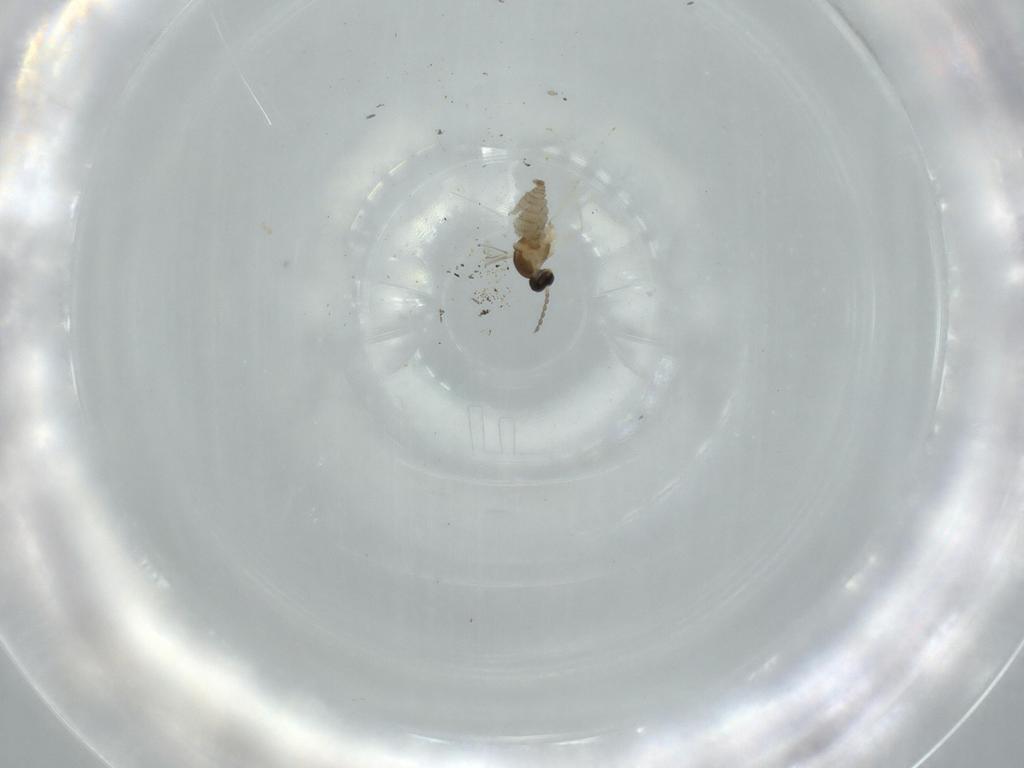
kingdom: Animalia
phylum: Arthropoda
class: Insecta
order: Diptera
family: Cecidomyiidae
